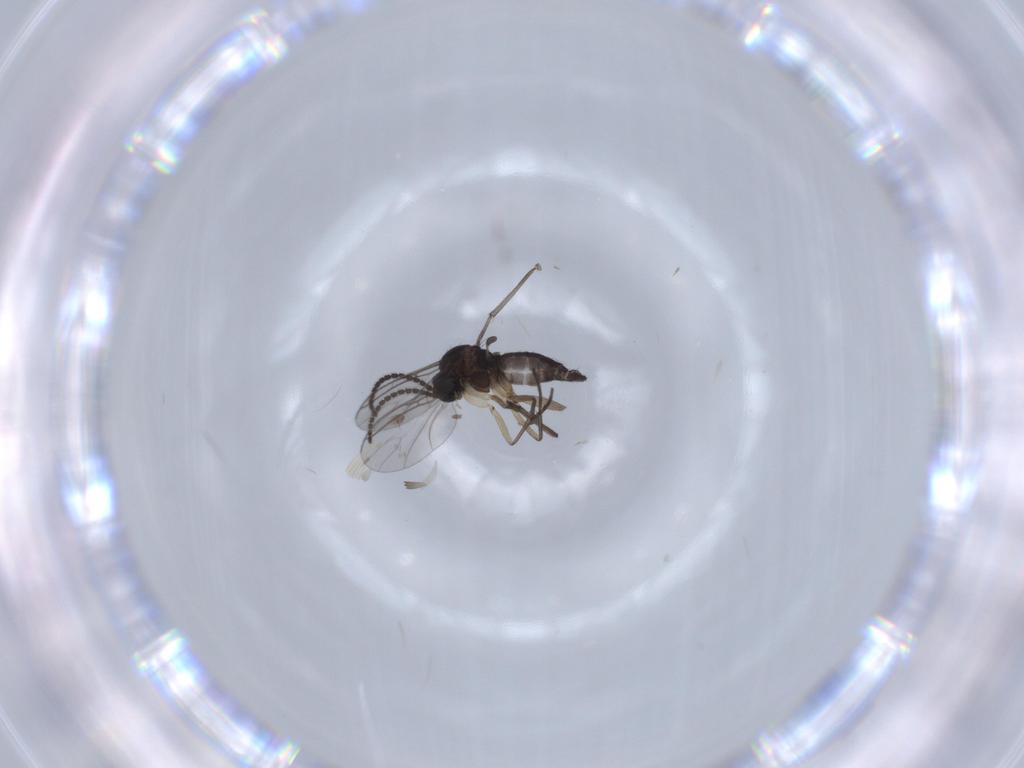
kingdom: Animalia
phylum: Arthropoda
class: Insecta
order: Diptera
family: Sciaridae
